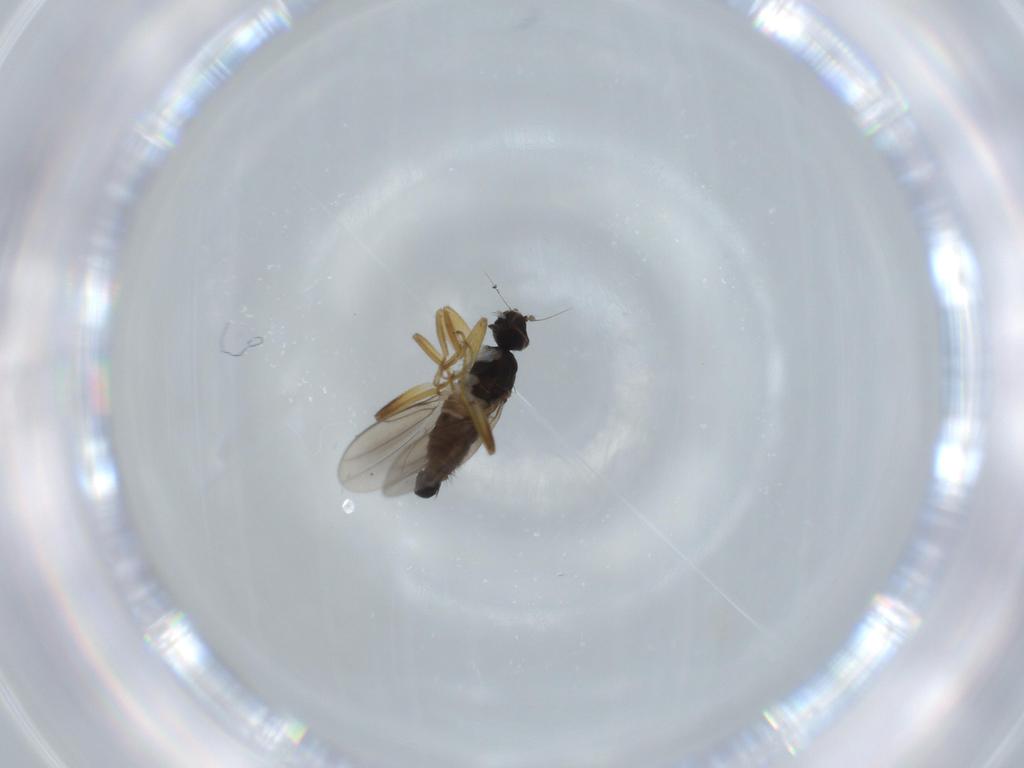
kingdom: Animalia
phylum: Arthropoda
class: Insecta
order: Diptera
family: Hybotidae
